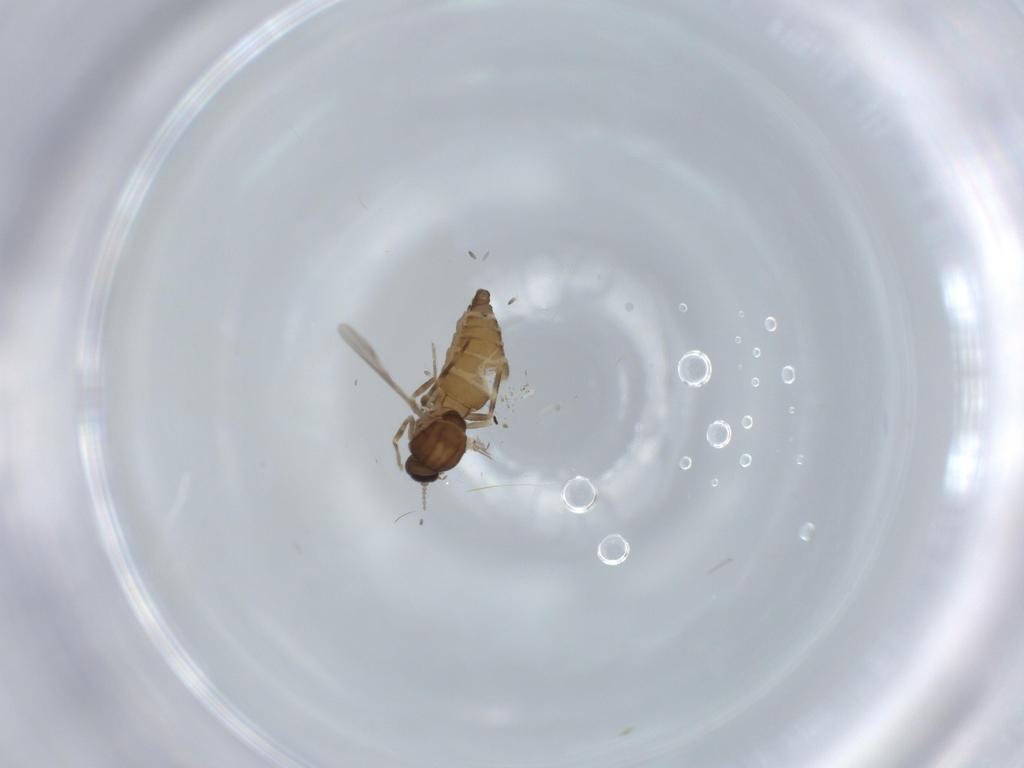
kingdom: Animalia
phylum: Arthropoda
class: Insecta
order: Diptera
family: Ceratopogonidae
